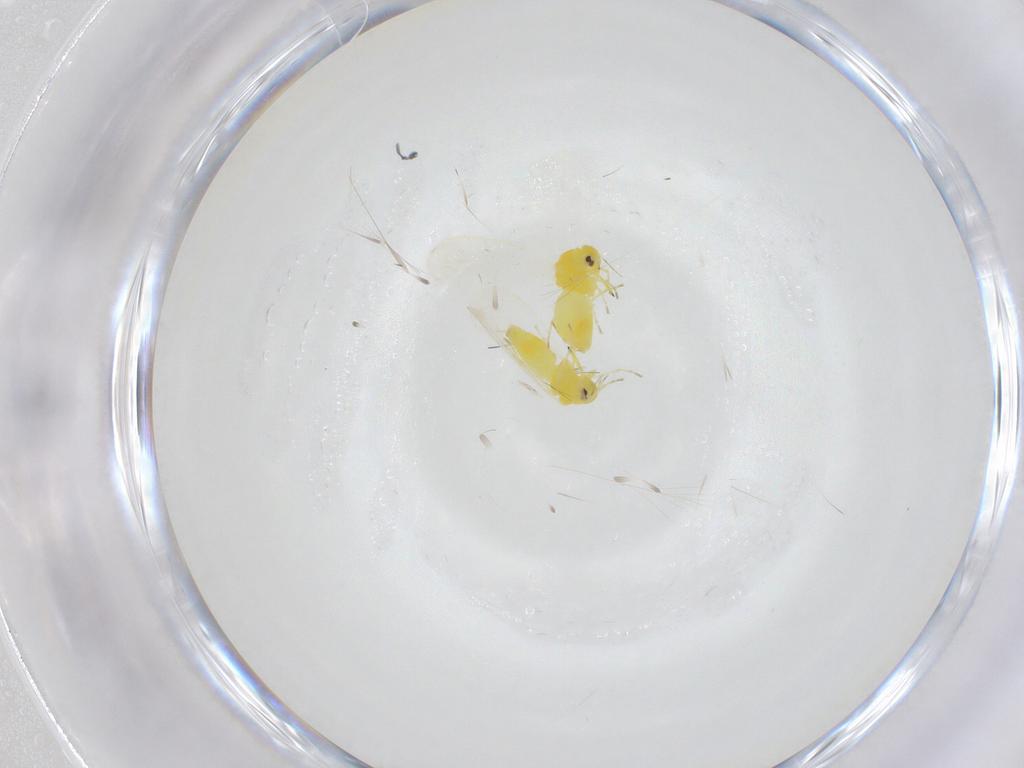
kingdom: Animalia
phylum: Arthropoda
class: Insecta
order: Hemiptera
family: Aleyrodidae
